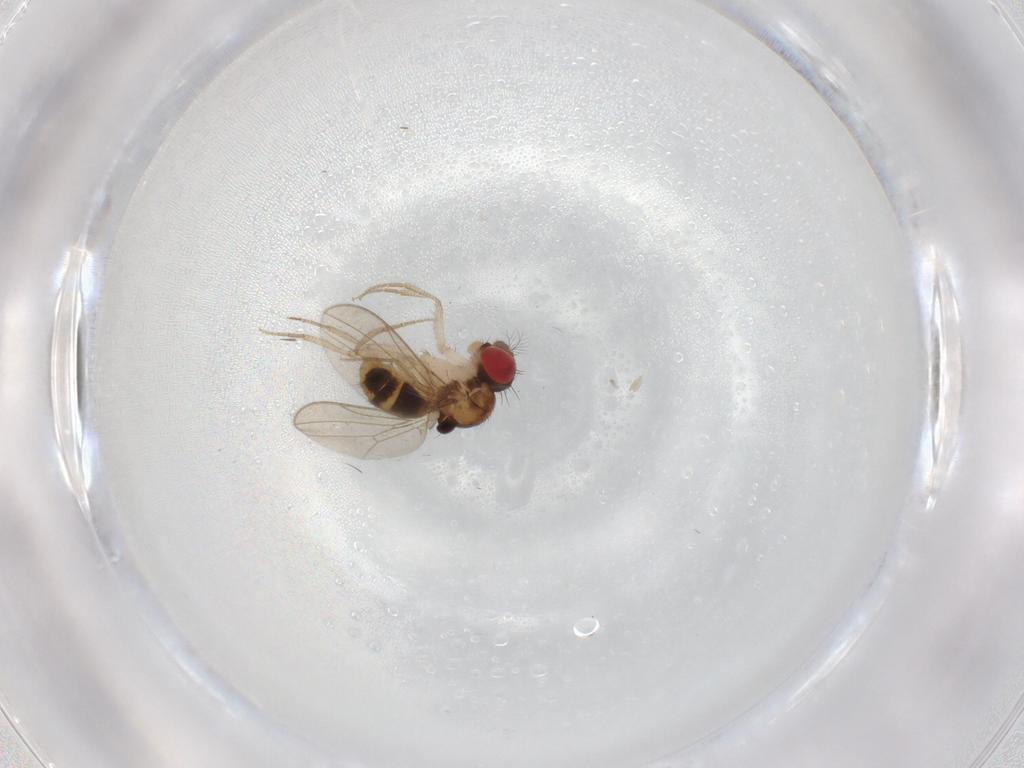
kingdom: Animalia
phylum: Arthropoda
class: Insecta
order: Diptera
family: Drosophilidae
